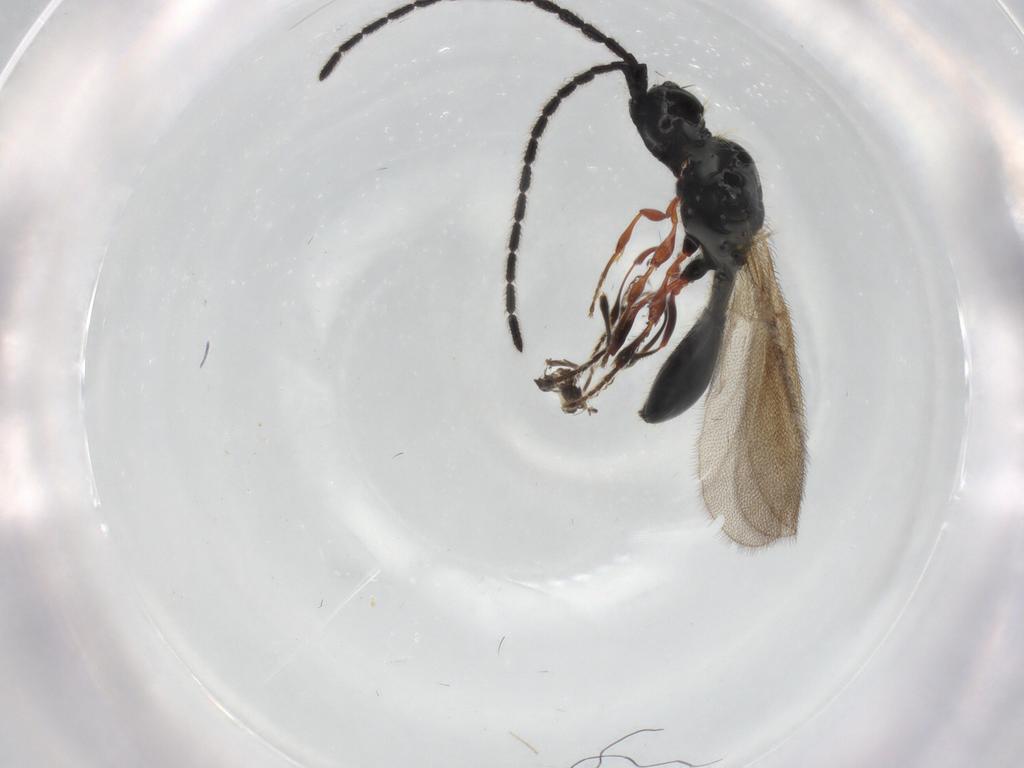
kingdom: Animalia
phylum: Arthropoda
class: Insecta
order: Hymenoptera
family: Diapriidae
